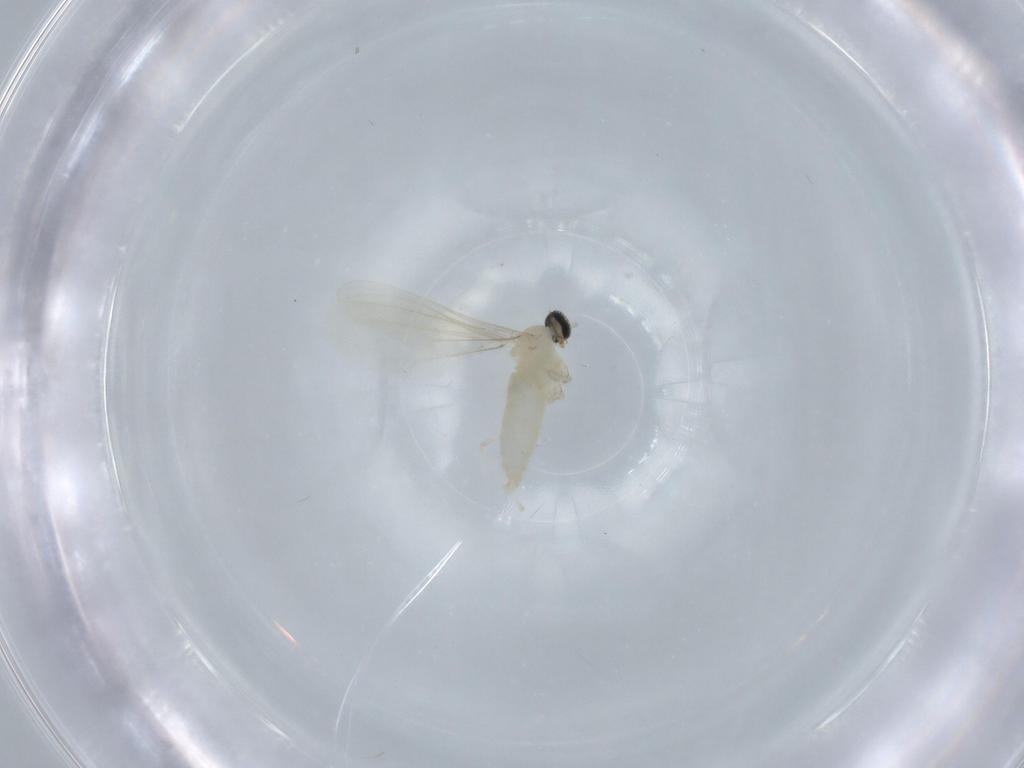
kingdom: Animalia
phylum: Arthropoda
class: Insecta
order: Diptera
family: Cecidomyiidae
